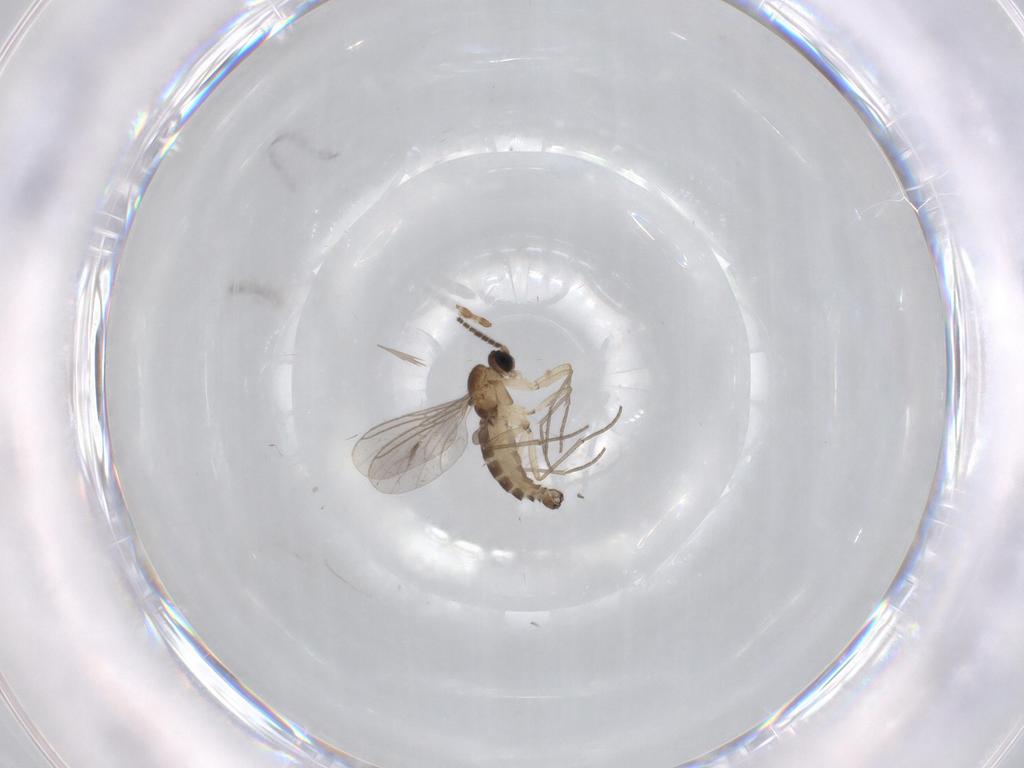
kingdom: Animalia
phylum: Arthropoda
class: Insecta
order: Diptera
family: Sciaridae
